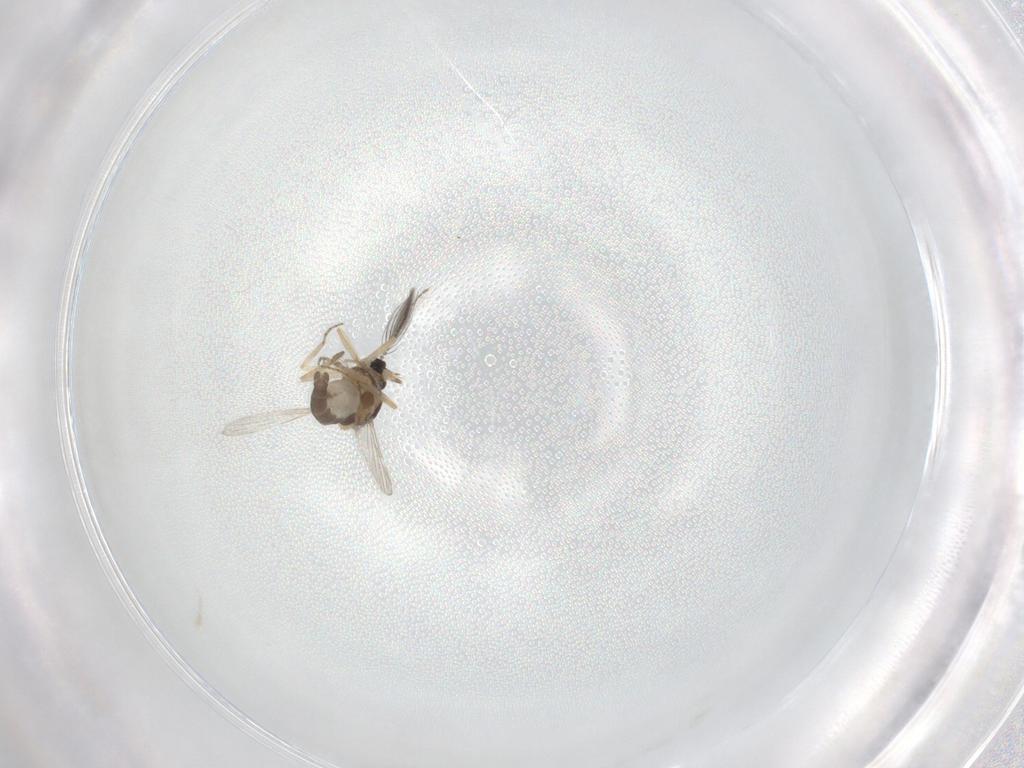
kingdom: Animalia
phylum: Arthropoda
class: Insecta
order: Diptera
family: Ceratopogonidae
